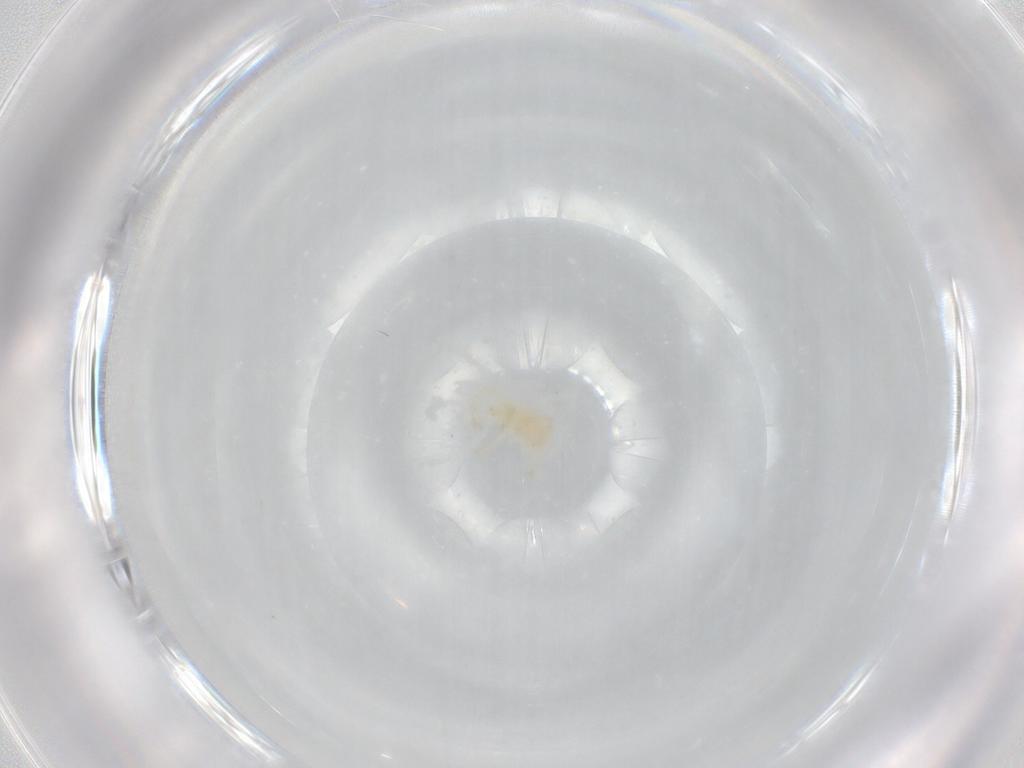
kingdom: Animalia
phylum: Arthropoda
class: Arachnida
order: Trombidiformes
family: Trombidiidae
